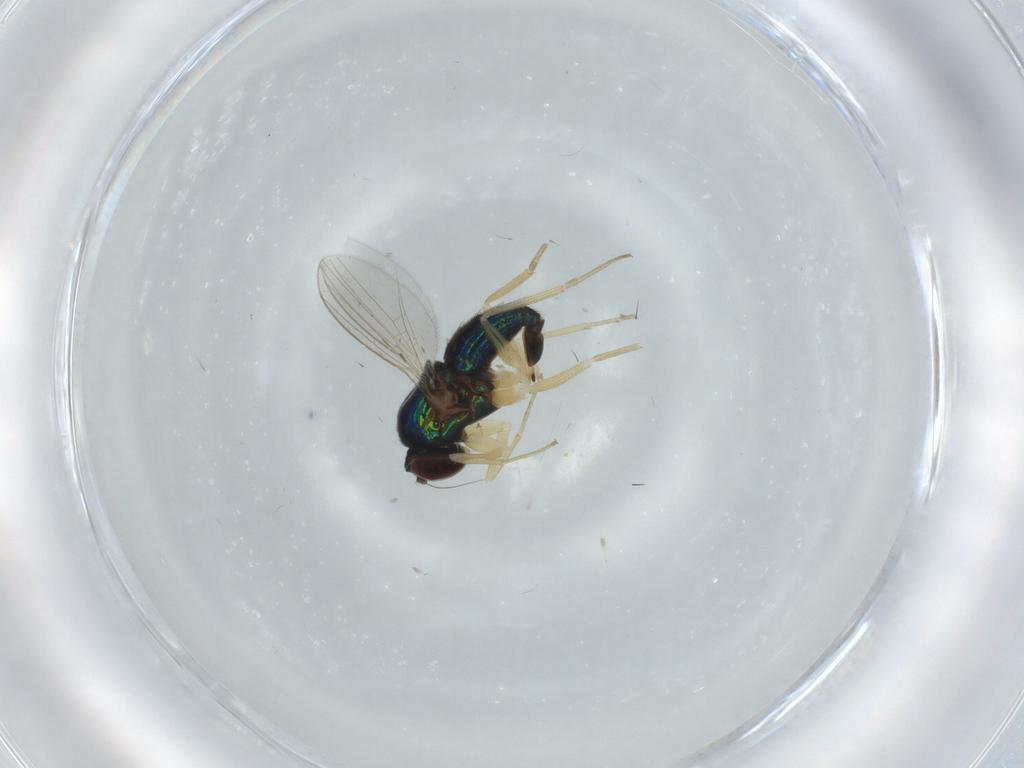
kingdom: Animalia
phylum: Arthropoda
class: Insecta
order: Diptera
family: Dolichopodidae
